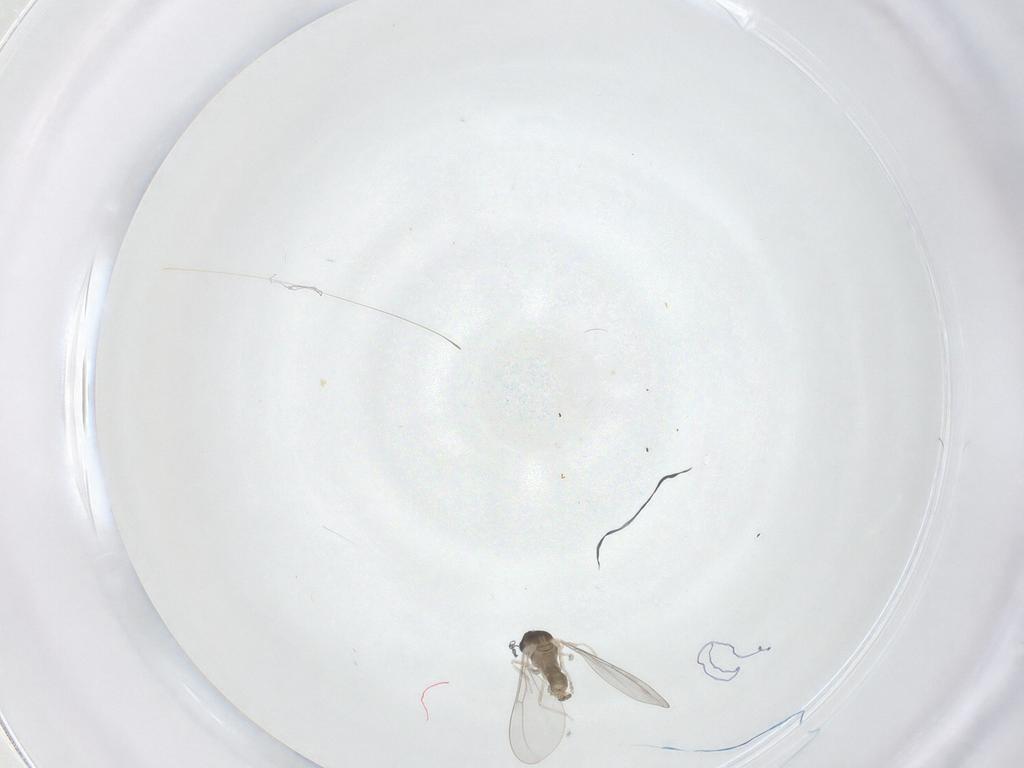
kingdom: Animalia
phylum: Arthropoda
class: Insecta
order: Diptera
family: Cecidomyiidae
